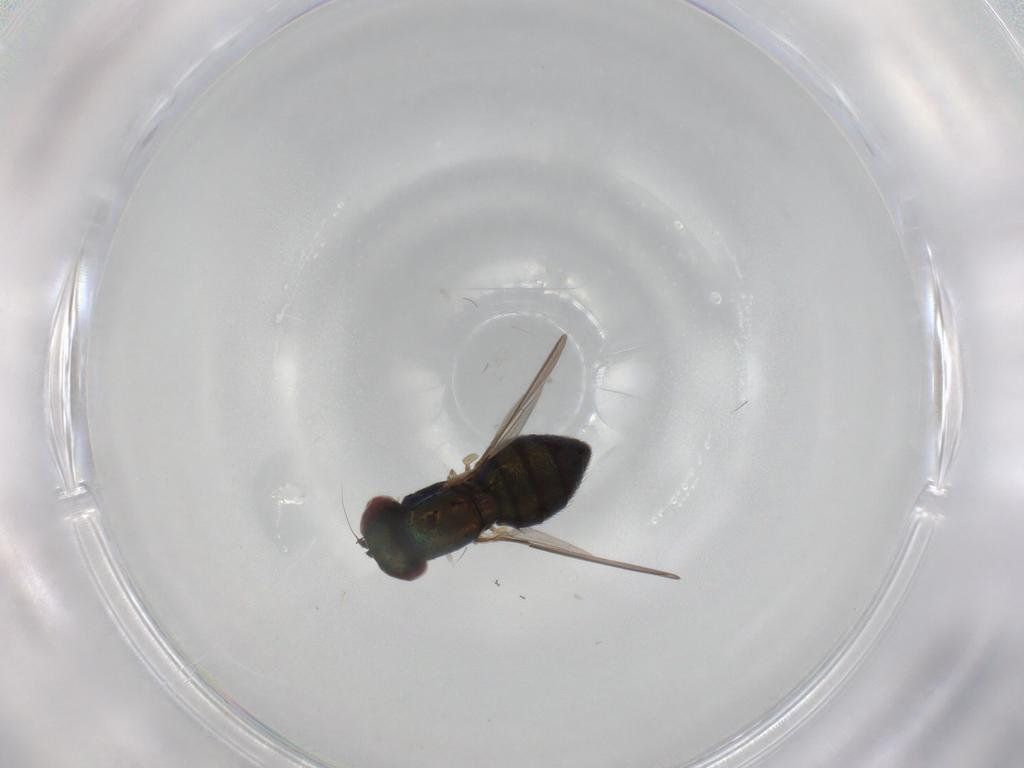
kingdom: Animalia
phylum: Arthropoda
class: Insecta
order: Diptera
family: Dolichopodidae
